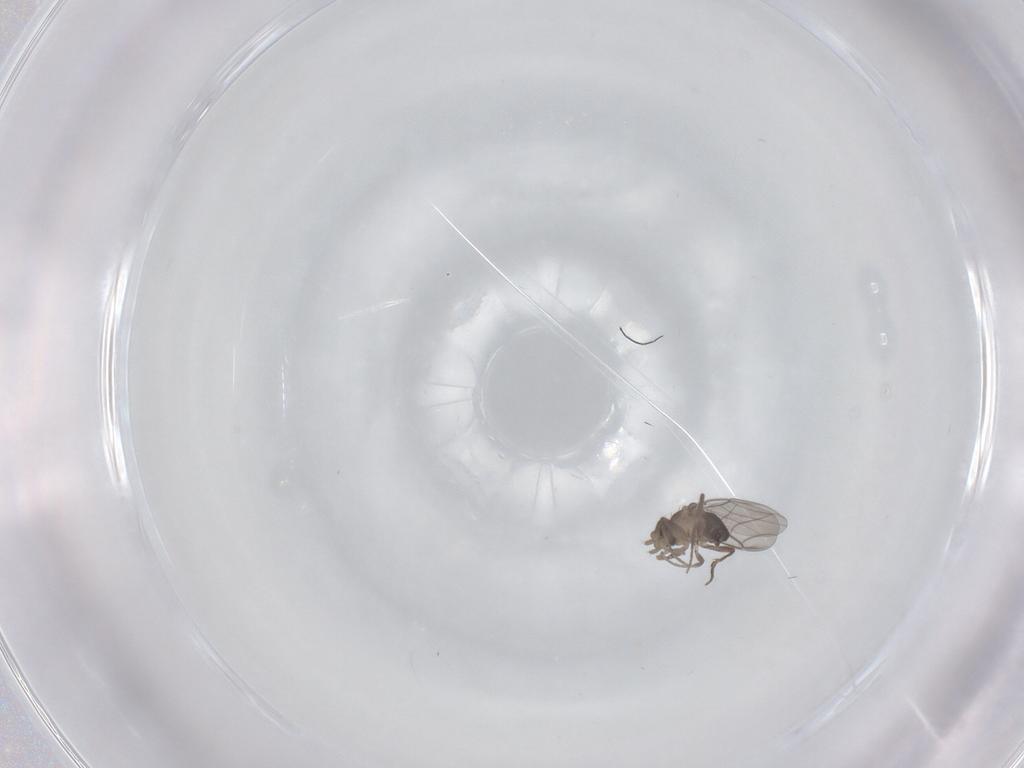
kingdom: Animalia
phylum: Arthropoda
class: Insecta
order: Diptera
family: Phoridae
